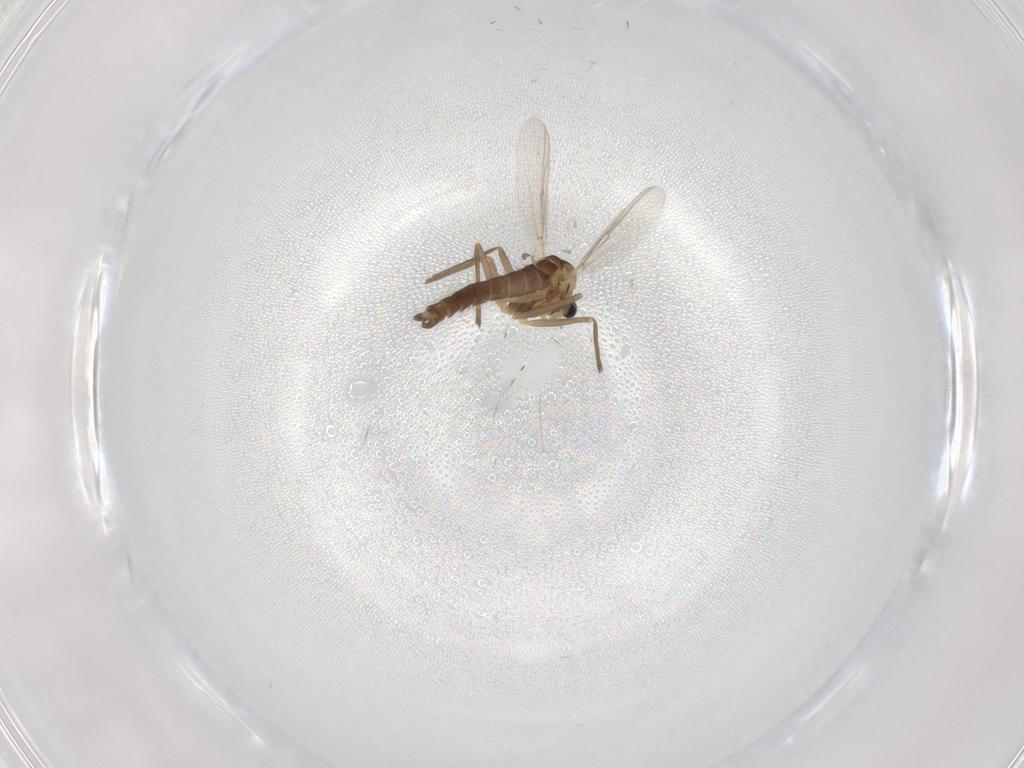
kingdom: Animalia
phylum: Arthropoda
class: Insecta
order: Diptera
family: Chironomidae
